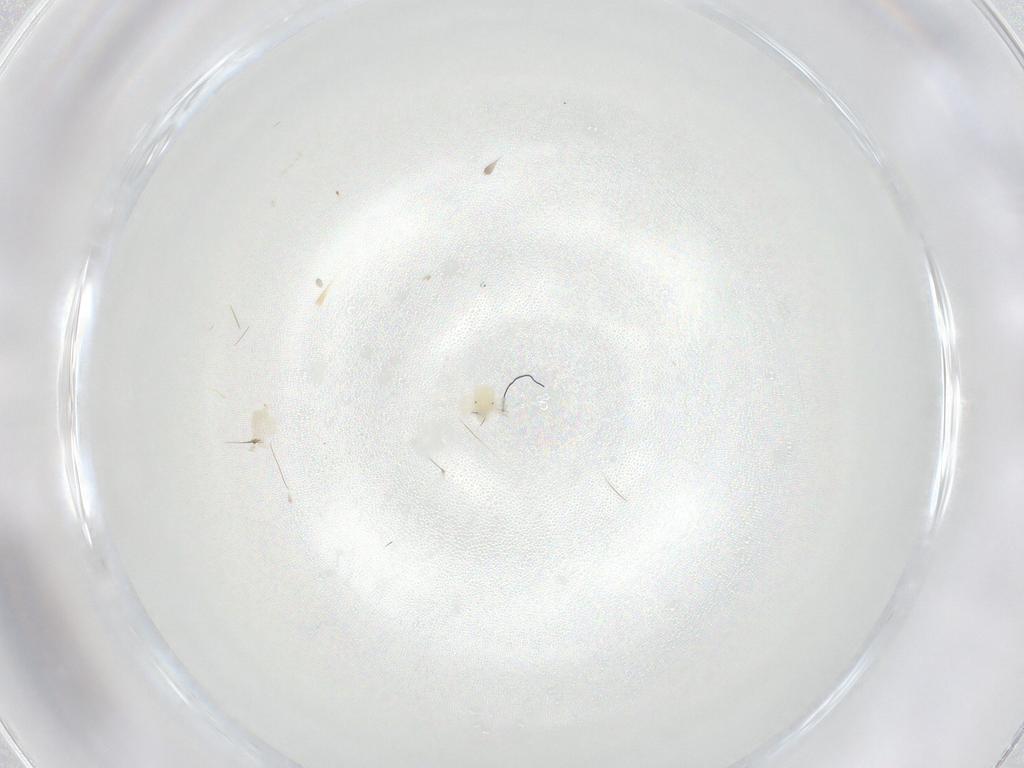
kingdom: Animalia
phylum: Arthropoda
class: Arachnida
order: Trombidiformes
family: Anystidae
